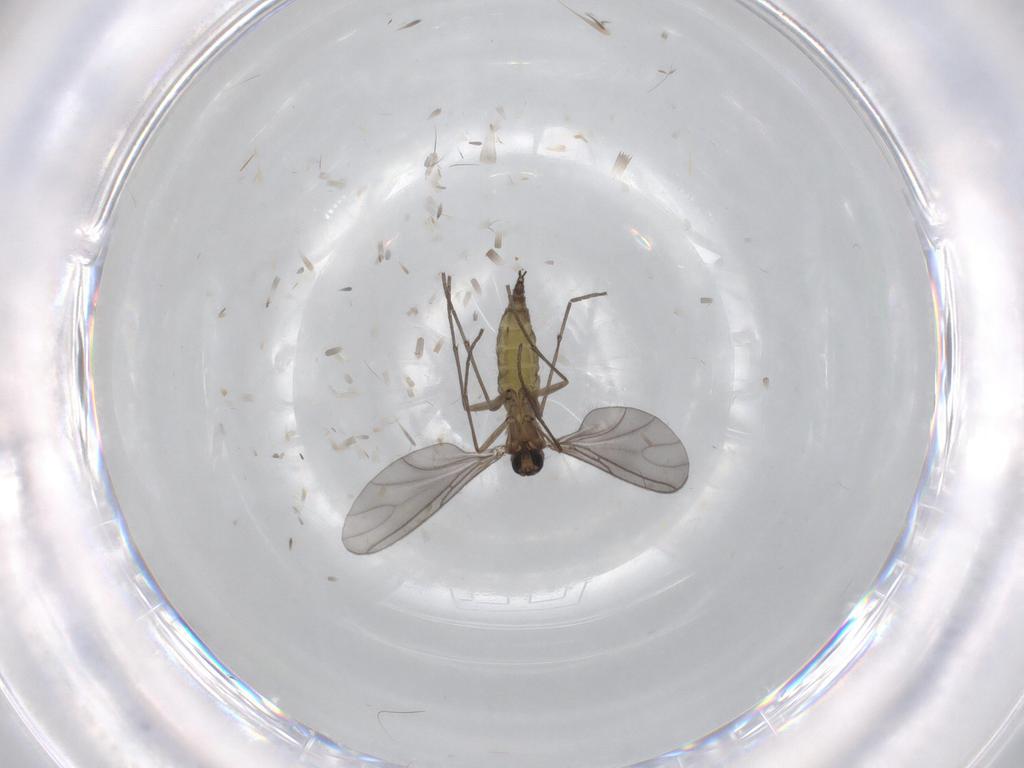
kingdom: Animalia
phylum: Arthropoda
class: Insecta
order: Diptera
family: Sciaridae
